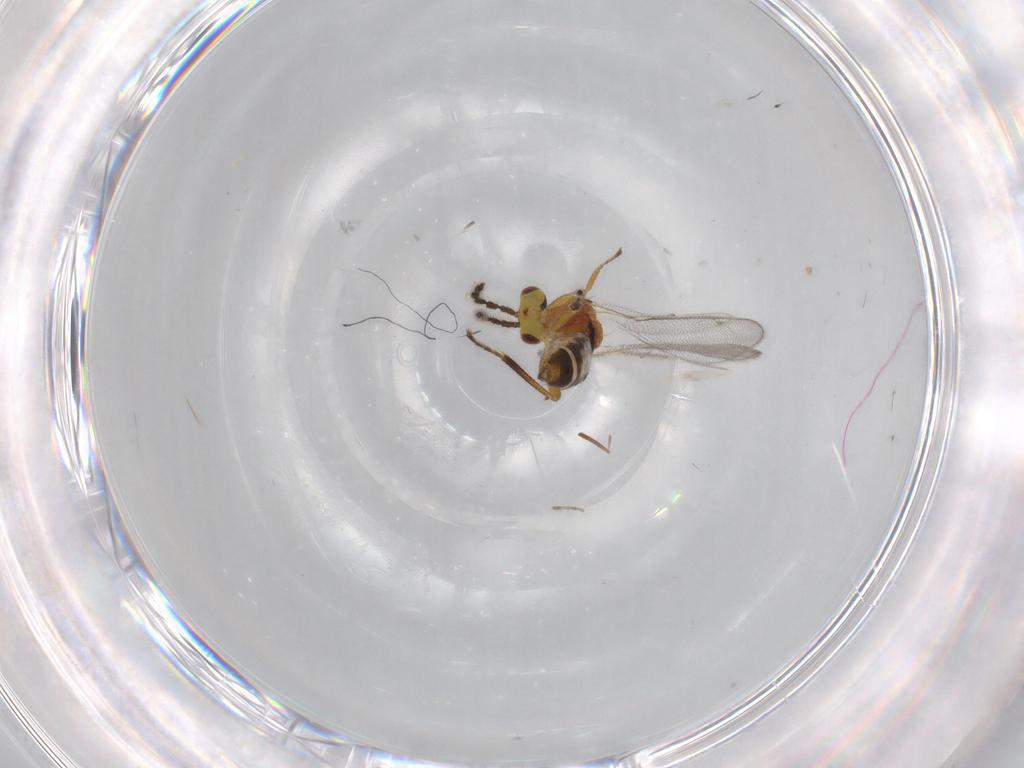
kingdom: Animalia
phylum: Arthropoda
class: Insecta
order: Hymenoptera
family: Eulophidae
